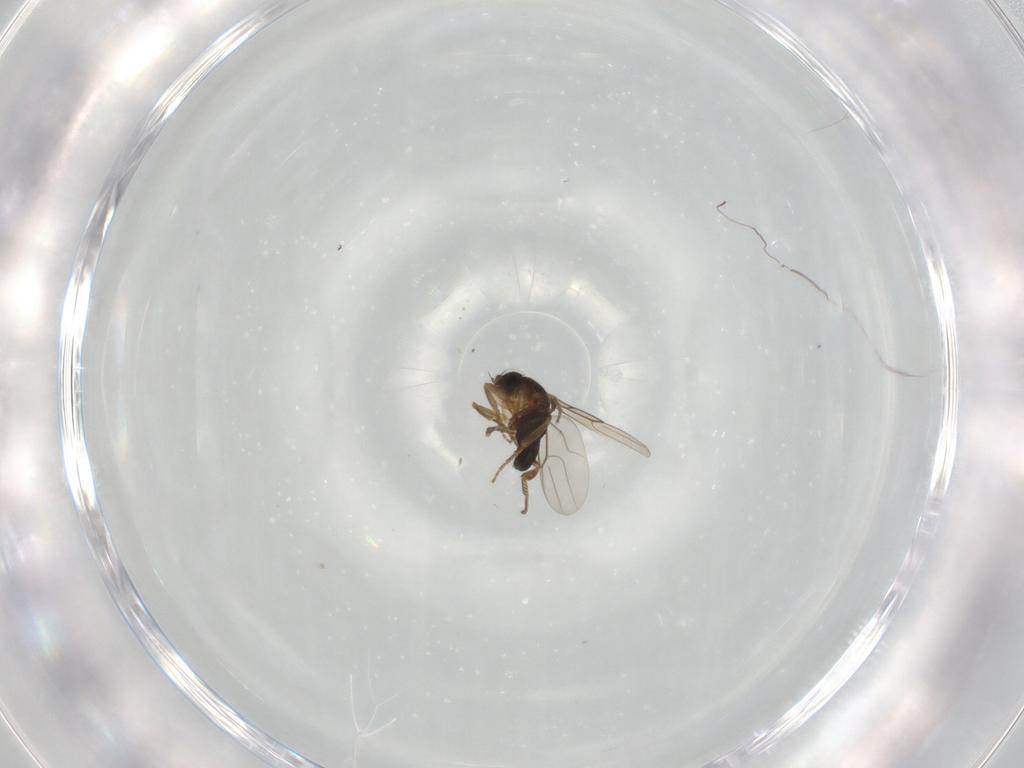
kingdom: Animalia
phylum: Arthropoda
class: Insecta
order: Diptera
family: Phoridae
